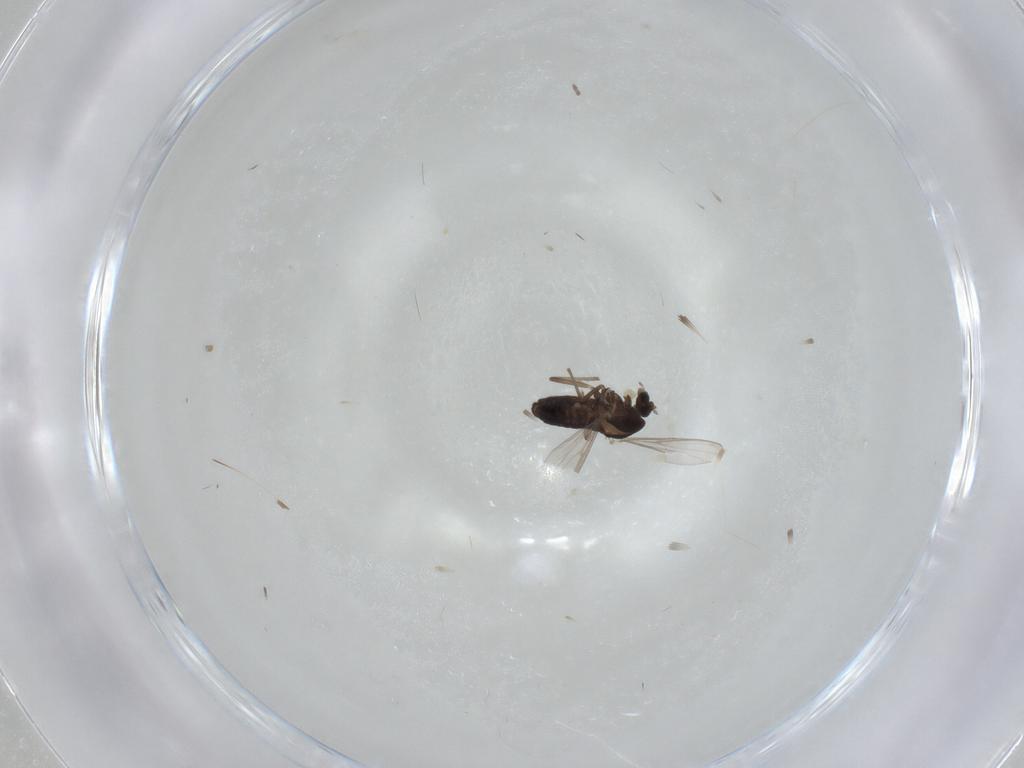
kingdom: Animalia
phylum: Arthropoda
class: Insecta
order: Diptera
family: Chironomidae
